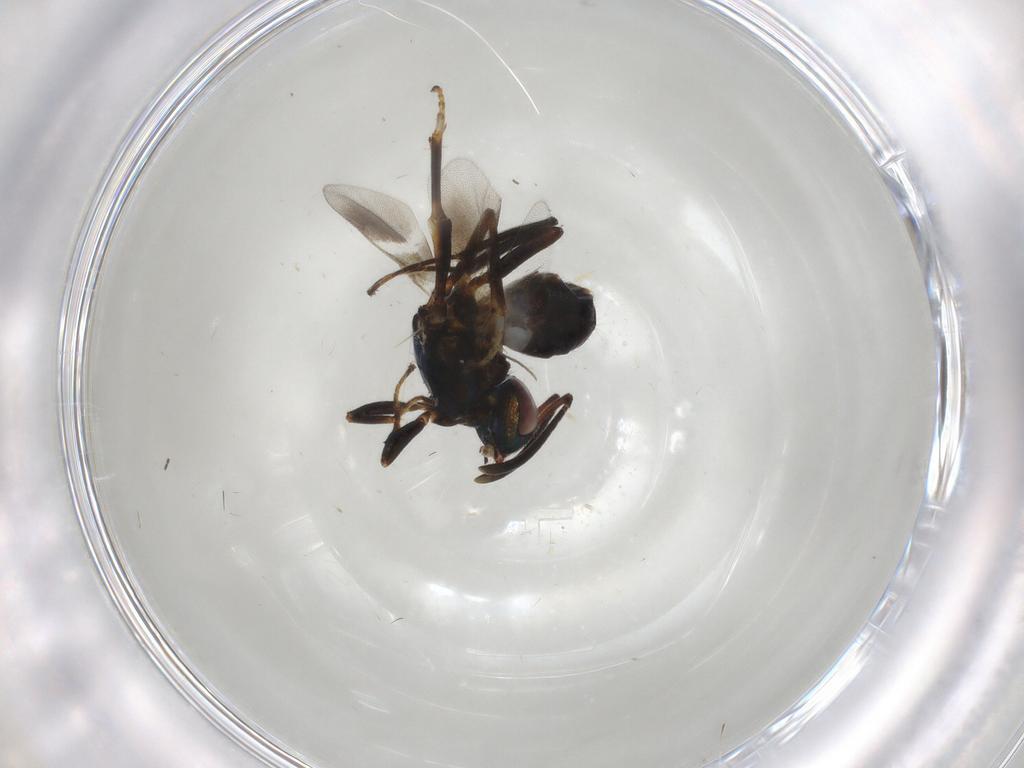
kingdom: Animalia
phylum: Arthropoda
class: Insecta
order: Hymenoptera
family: Eupelmidae
